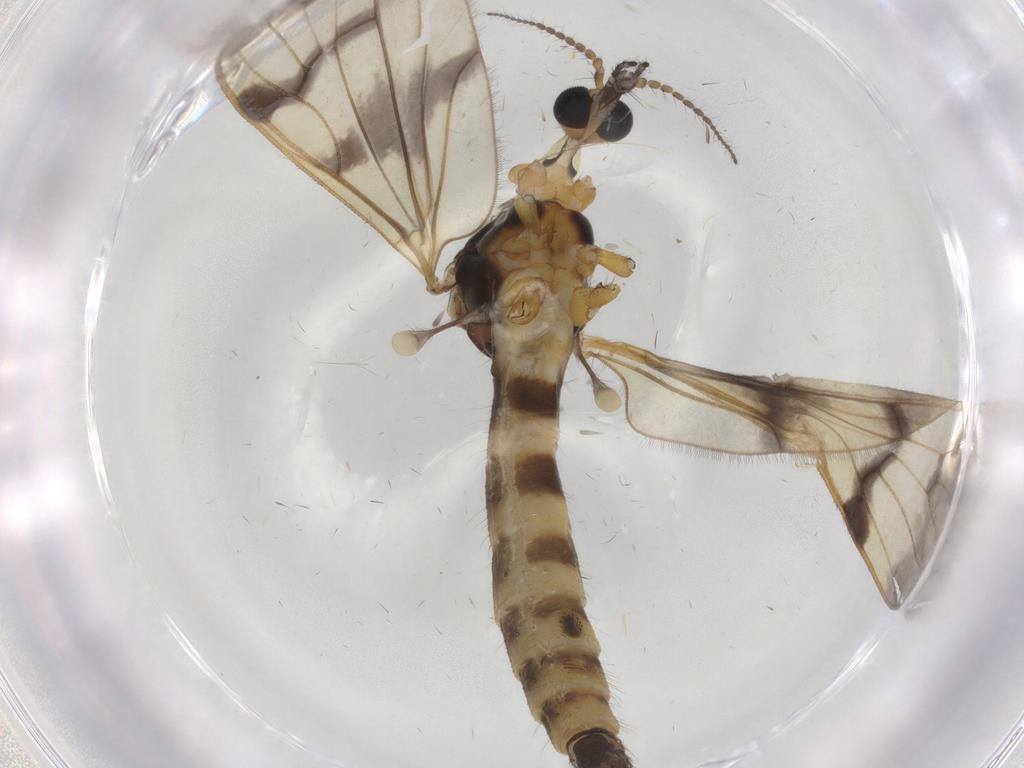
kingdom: Animalia
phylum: Arthropoda
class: Insecta
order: Diptera
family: Dolichopodidae
